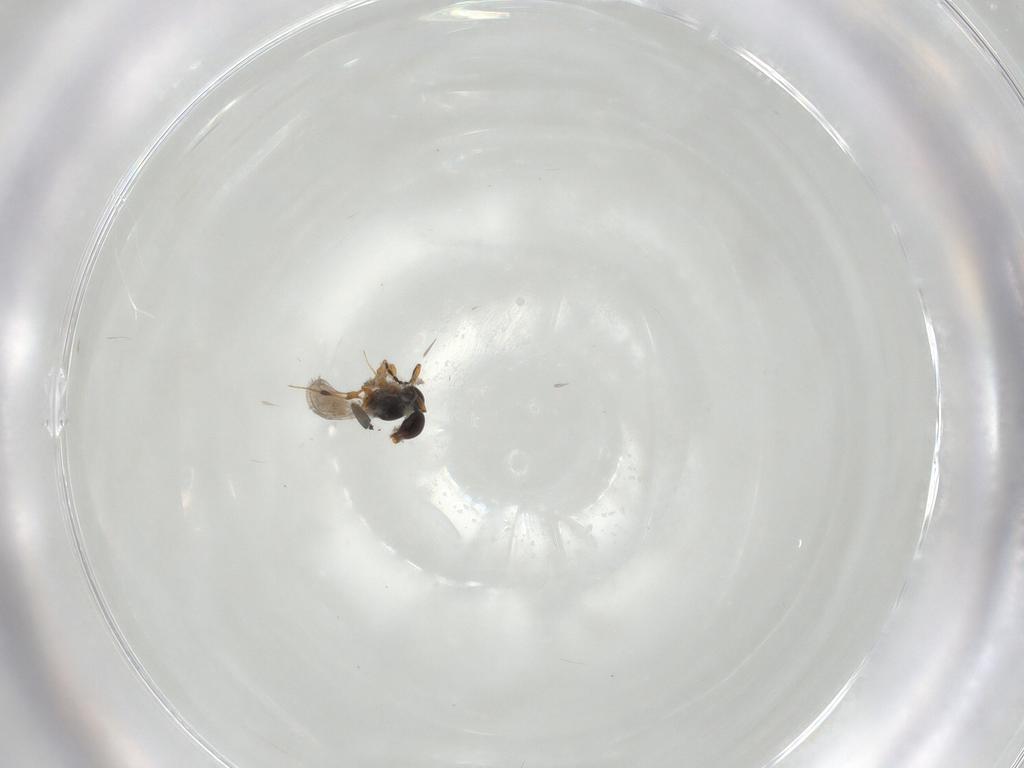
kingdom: Animalia
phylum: Arthropoda
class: Insecta
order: Hymenoptera
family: Platygastridae
